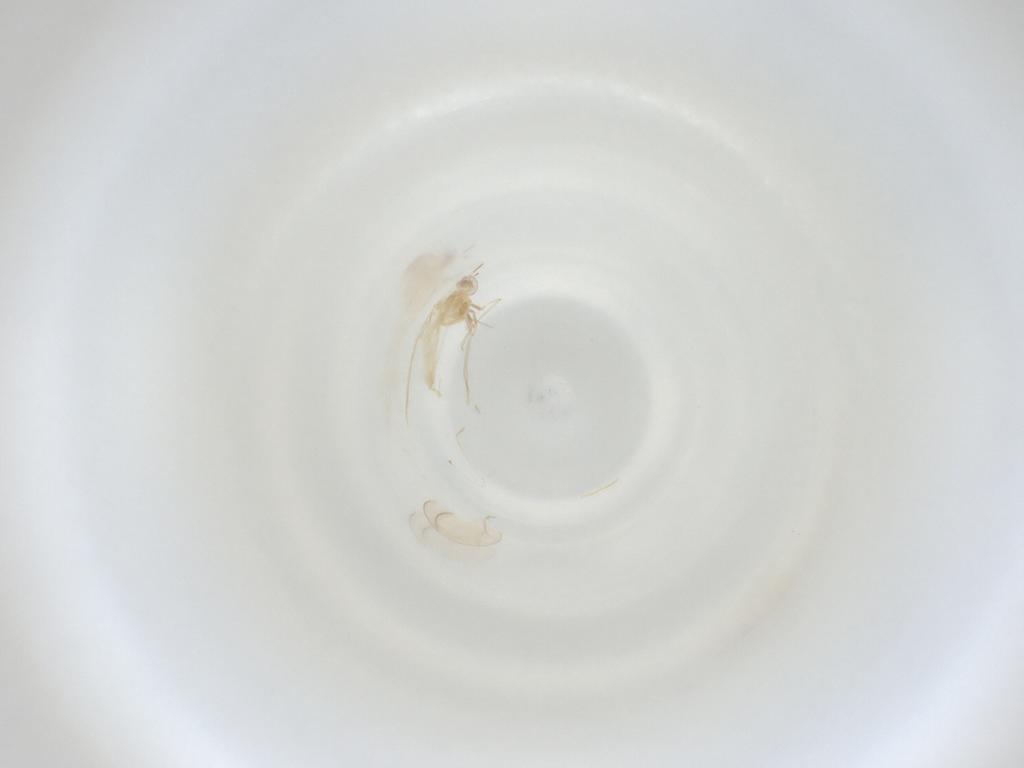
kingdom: Animalia
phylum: Arthropoda
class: Insecta
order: Diptera
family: Cecidomyiidae
